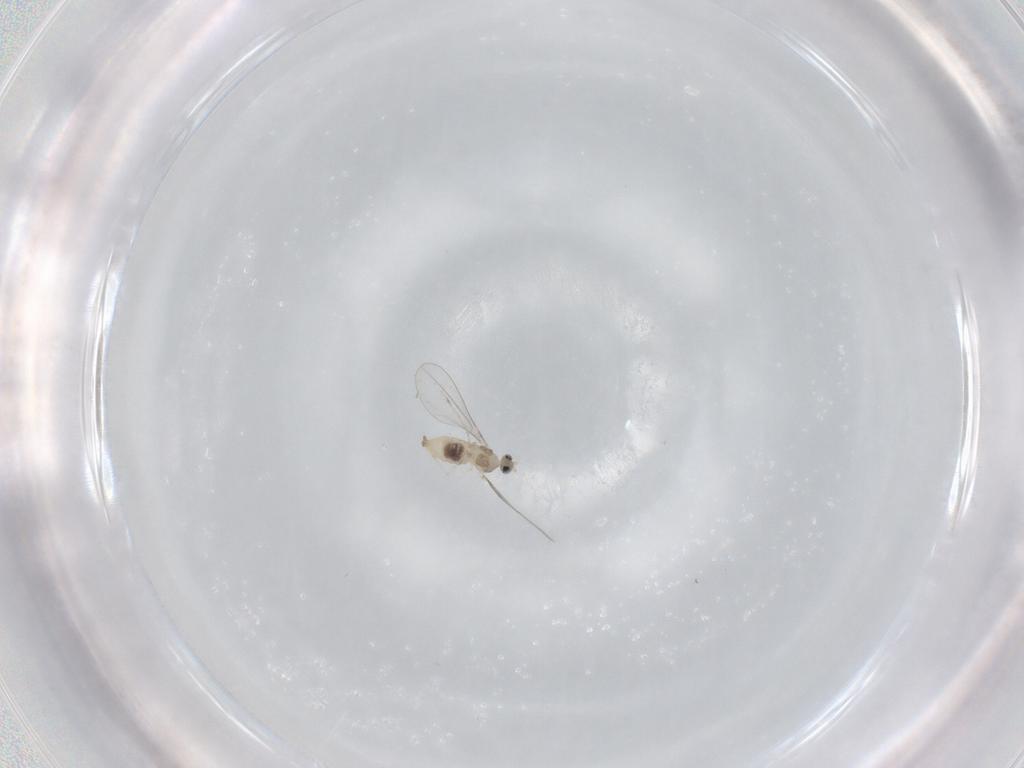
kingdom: Animalia
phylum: Arthropoda
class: Insecta
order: Diptera
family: Cecidomyiidae
